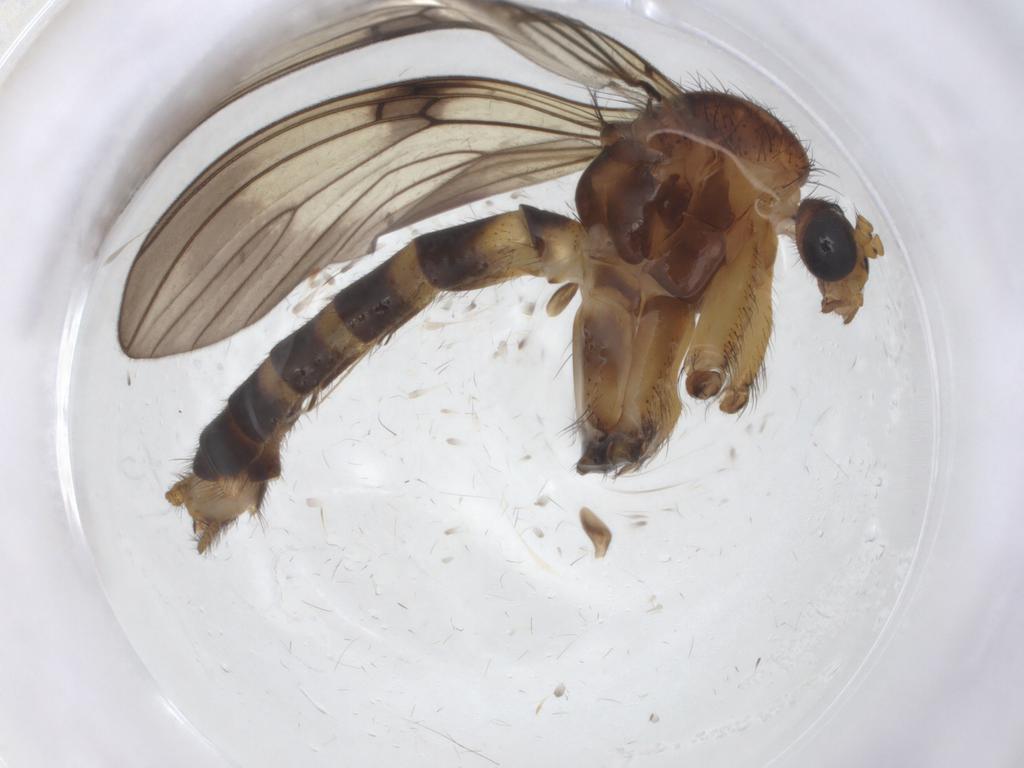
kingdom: Animalia
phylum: Arthropoda
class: Insecta
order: Diptera
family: Mycetophilidae
